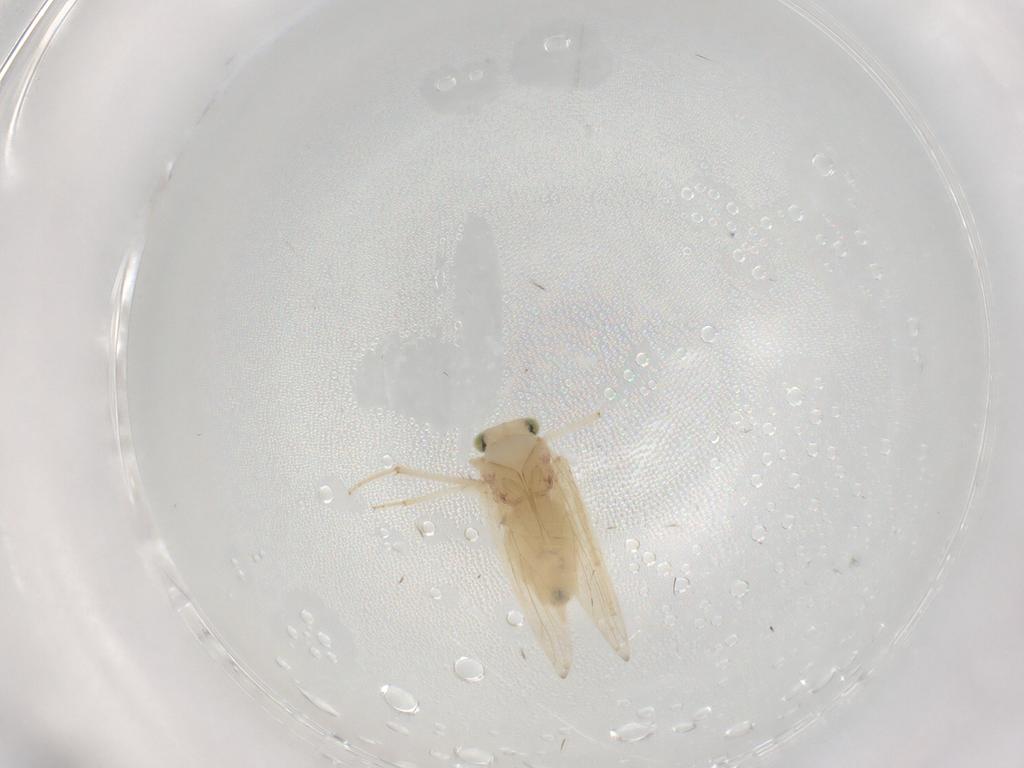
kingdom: Animalia
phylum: Arthropoda
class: Insecta
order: Psocodea
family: Lepidopsocidae
